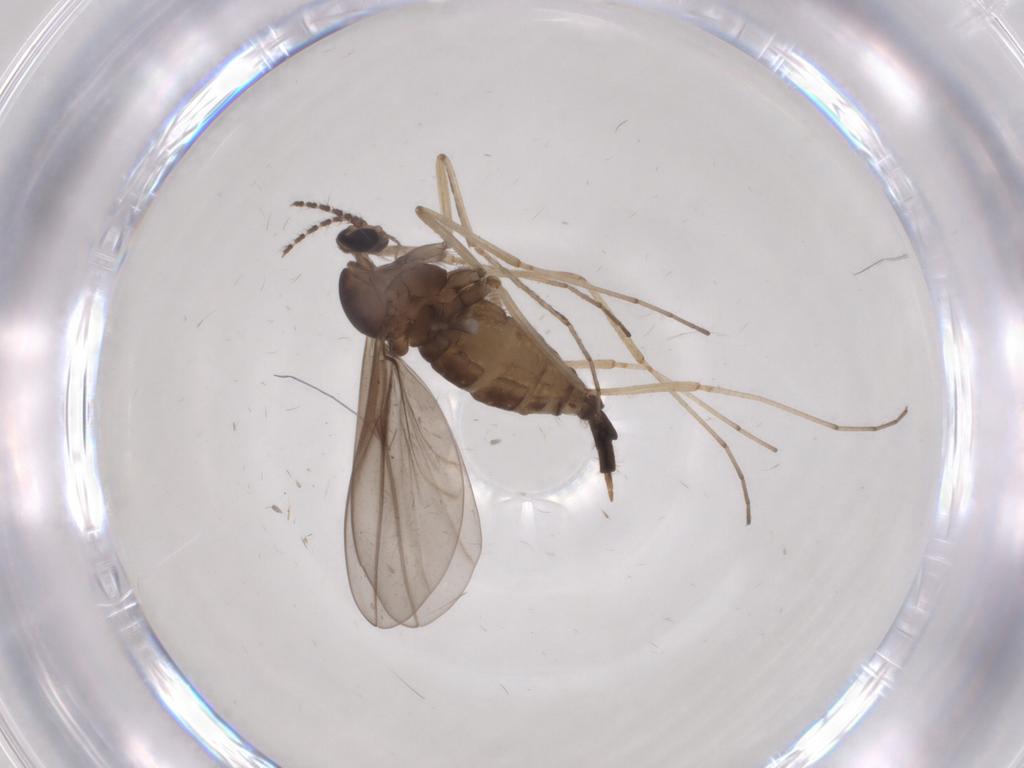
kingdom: Animalia
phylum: Arthropoda
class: Insecta
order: Diptera
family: Cecidomyiidae
